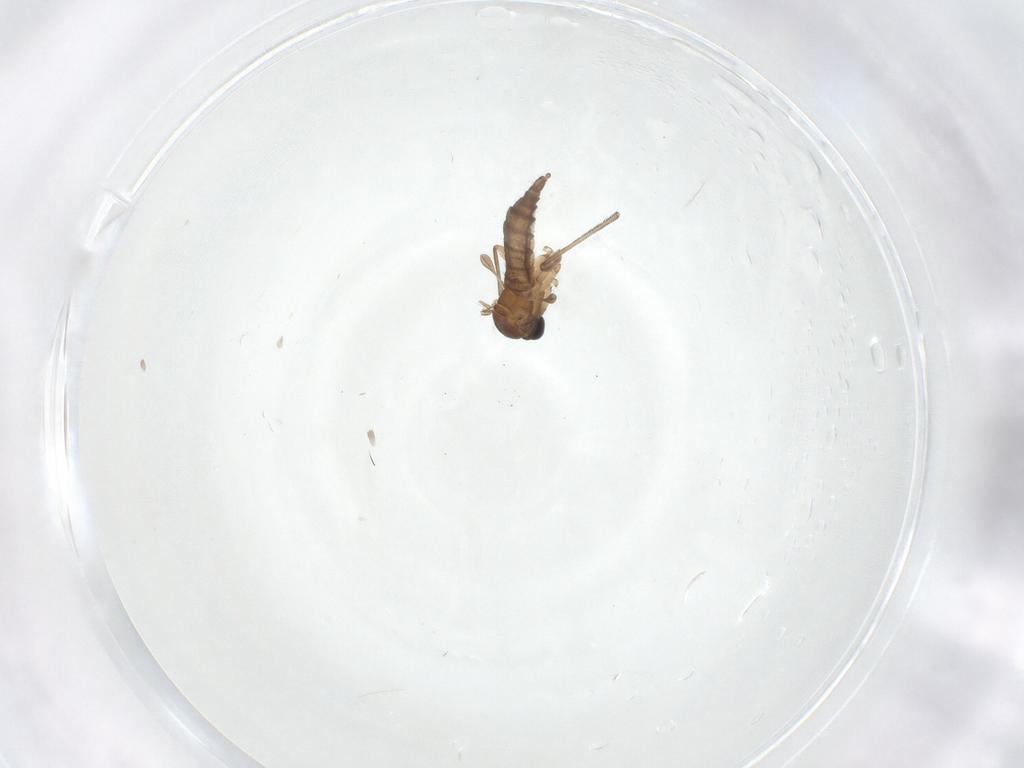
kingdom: Animalia
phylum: Arthropoda
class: Insecta
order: Diptera
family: Sciaridae
